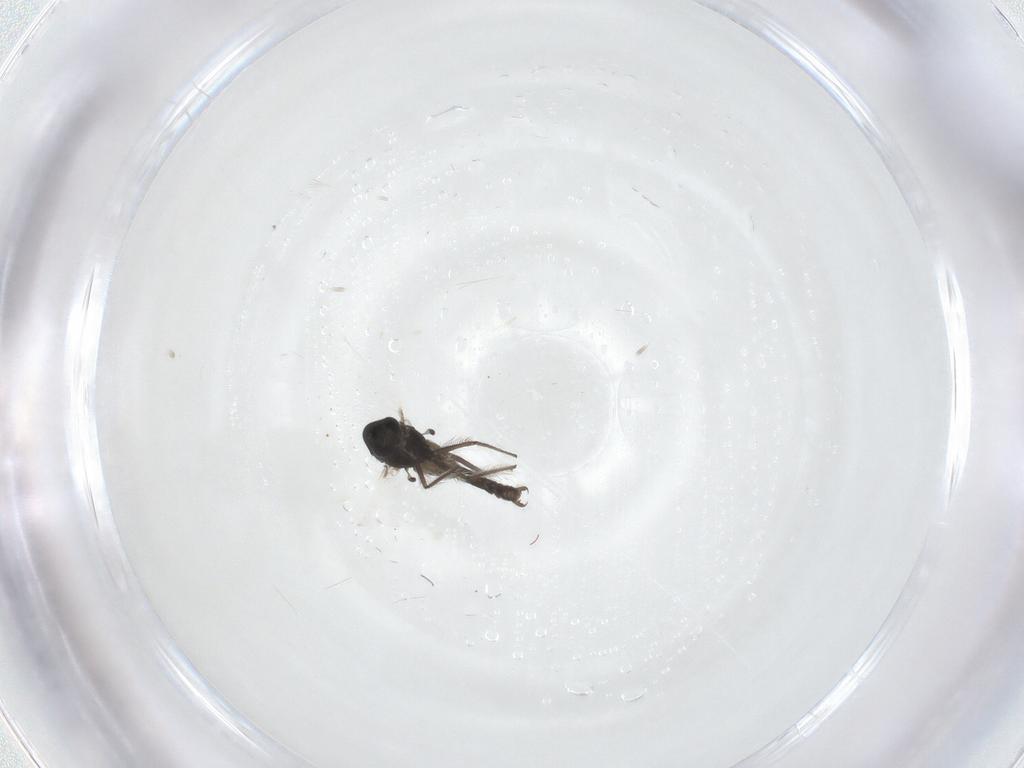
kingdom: Animalia
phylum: Arthropoda
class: Insecta
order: Diptera
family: Chironomidae
